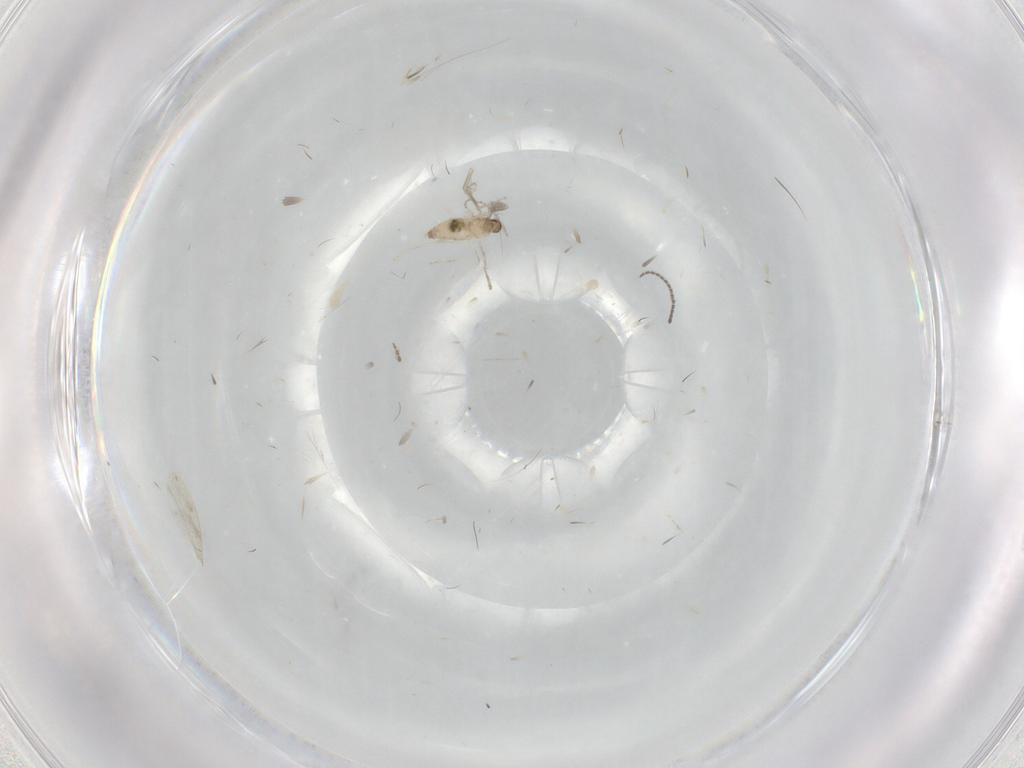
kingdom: Animalia
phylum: Arthropoda
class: Insecta
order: Diptera
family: Cecidomyiidae
